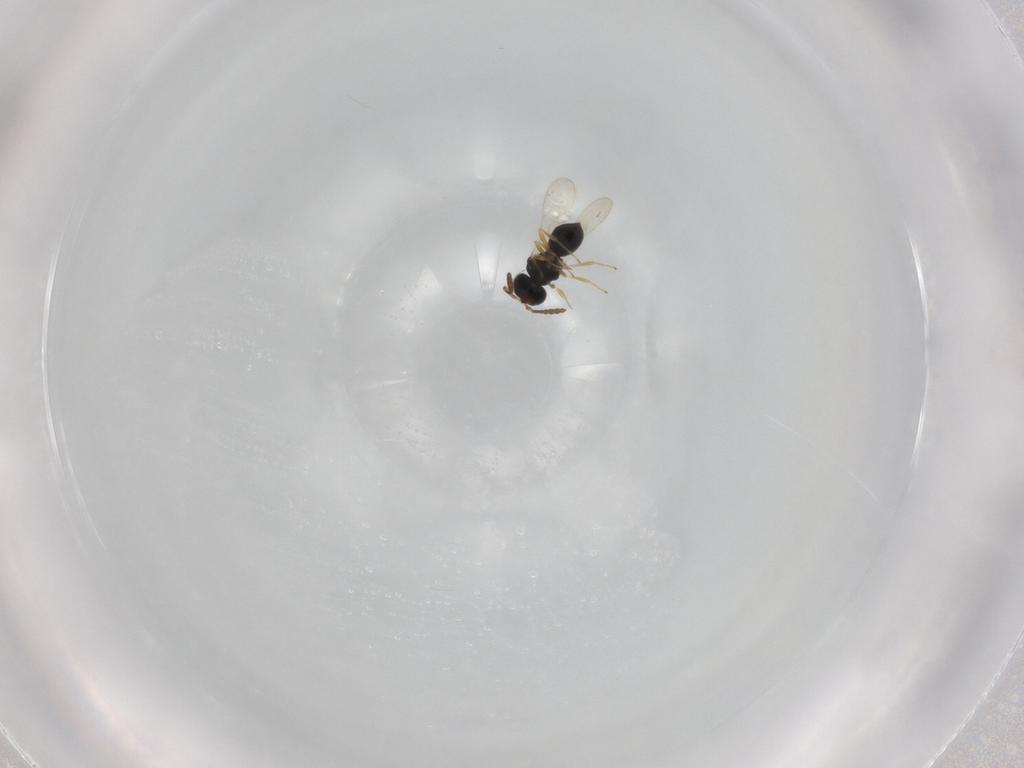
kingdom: Animalia
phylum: Arthropoda
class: Insecta
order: Hymenoptera
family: Scelionidae
